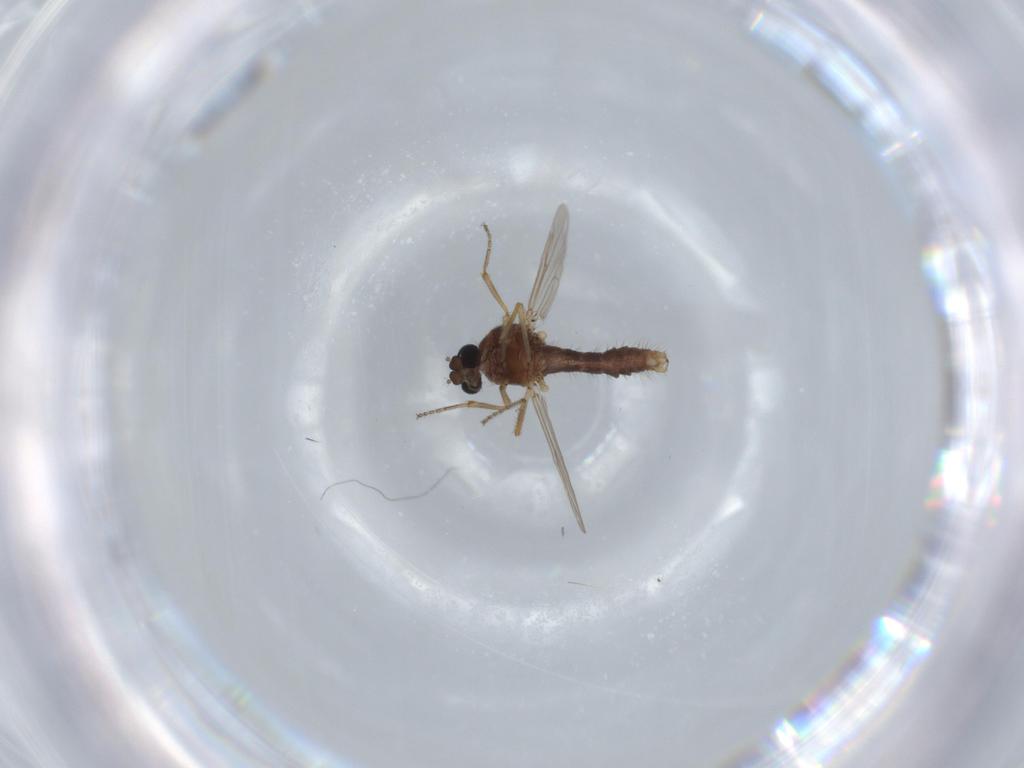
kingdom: Animalia
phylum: Arthropoda
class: Insecta
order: Diptera
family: Ceratopogonidae
